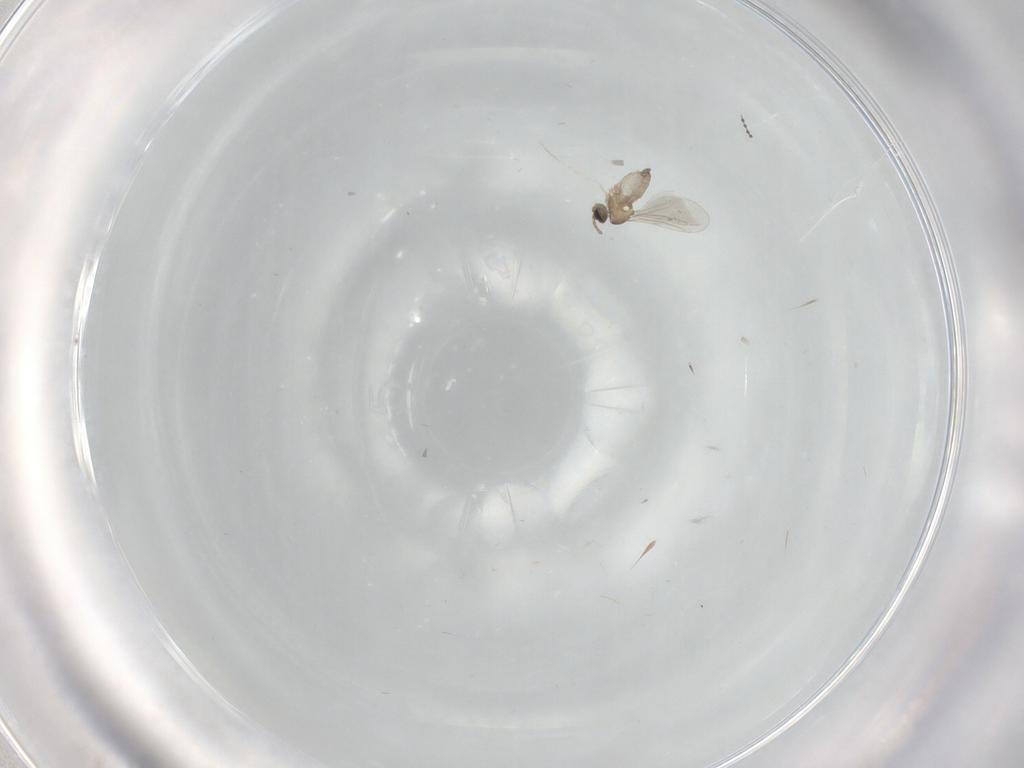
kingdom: Animalia
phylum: Arthropoda
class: Insecta
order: Diptera
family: Cecidomyiidae
